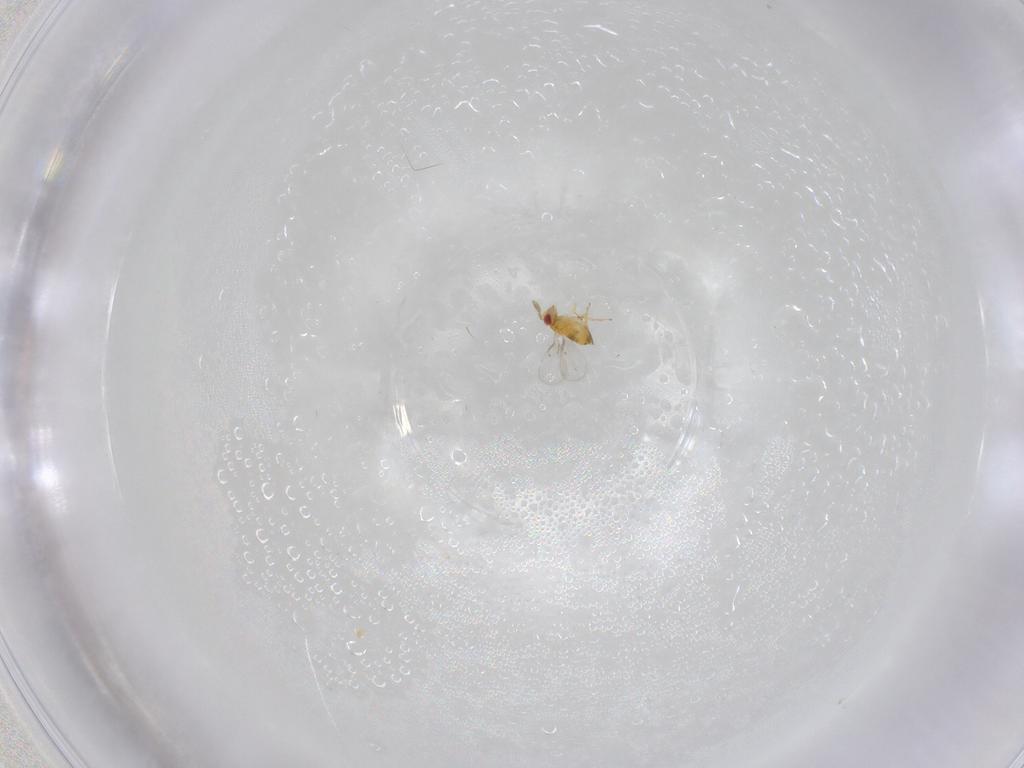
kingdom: Animalia
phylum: Arthropoda
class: Insecta
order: Hymenoptera
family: Trichogrammatidae
